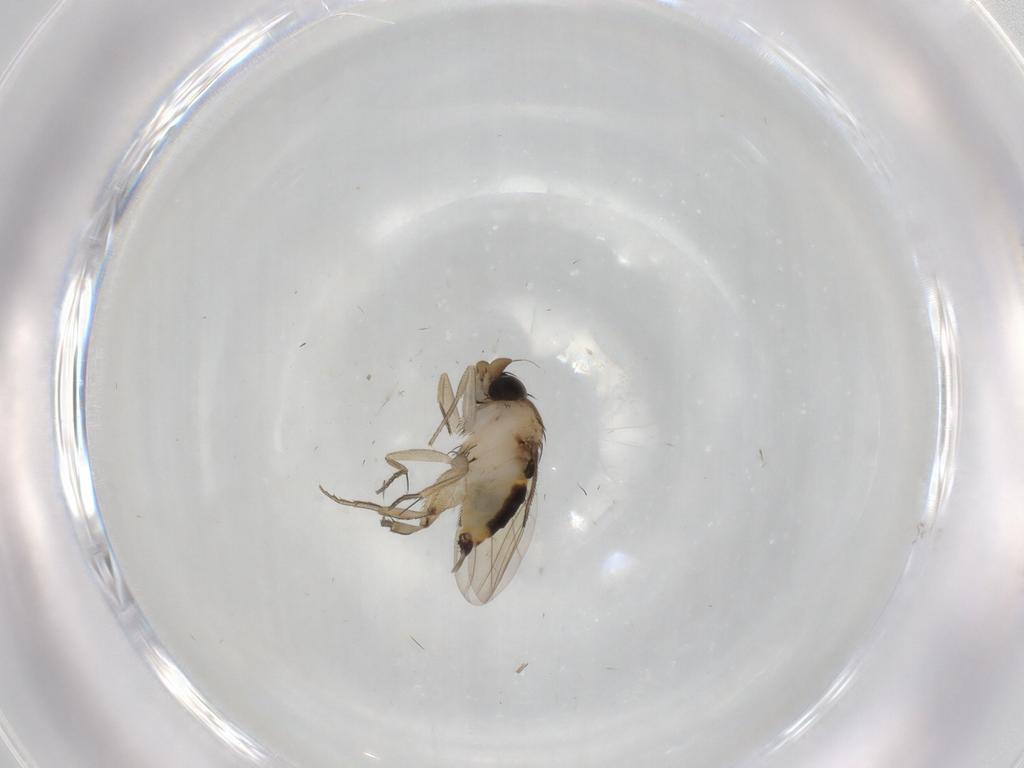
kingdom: Animalia
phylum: Arthropoda
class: Insecta
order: Diptera
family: Phoridae
